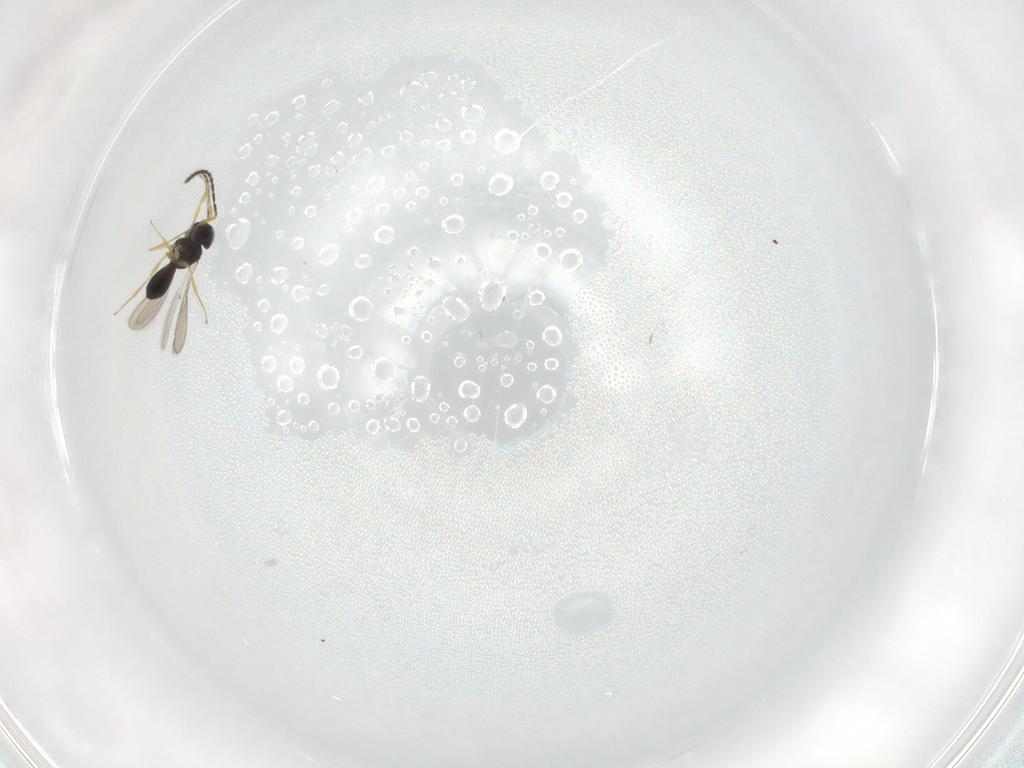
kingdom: Animalia
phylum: Arthropoda
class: Insecta
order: Hymenoptera
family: Scelionidae
